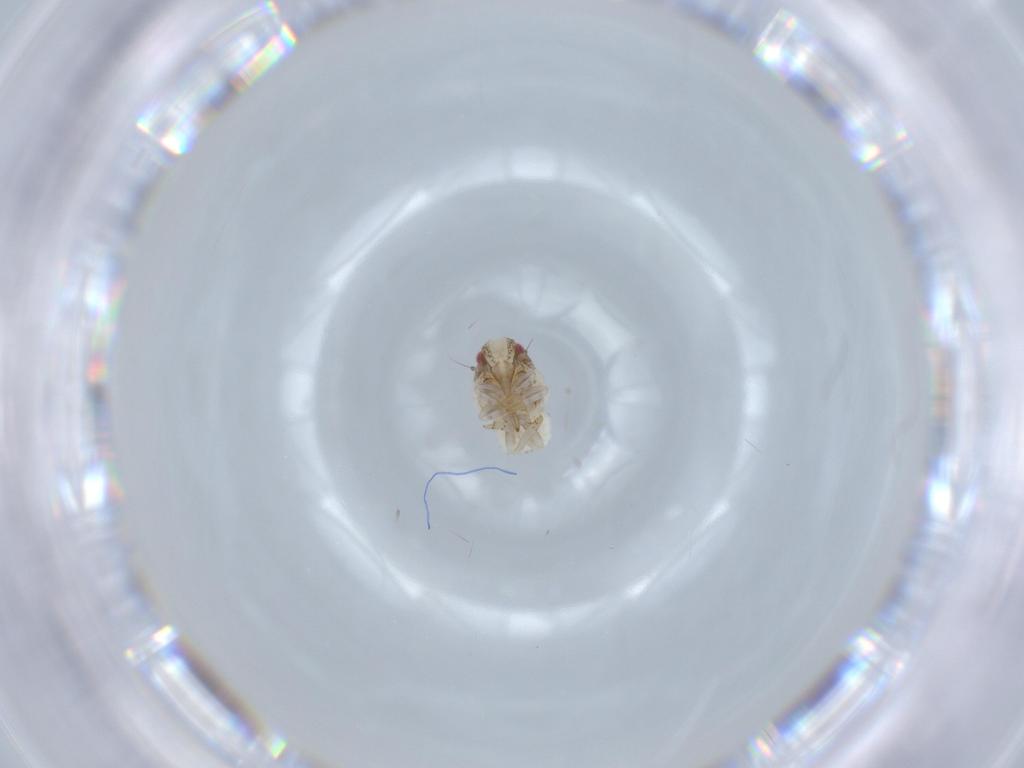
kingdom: Animalia
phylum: Arthropoda
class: Insecta
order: Hemiptera
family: Acanaloniidae
